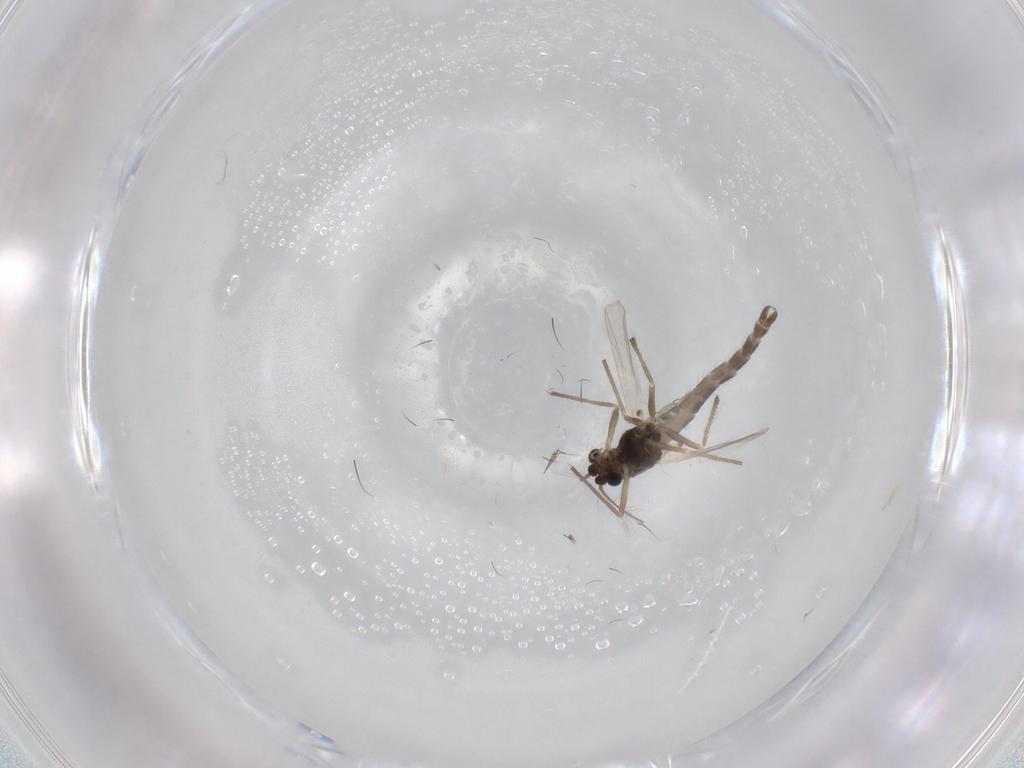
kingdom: Animalia
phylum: Arthropoda
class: Insecta
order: Diptera
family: Chironomidae
